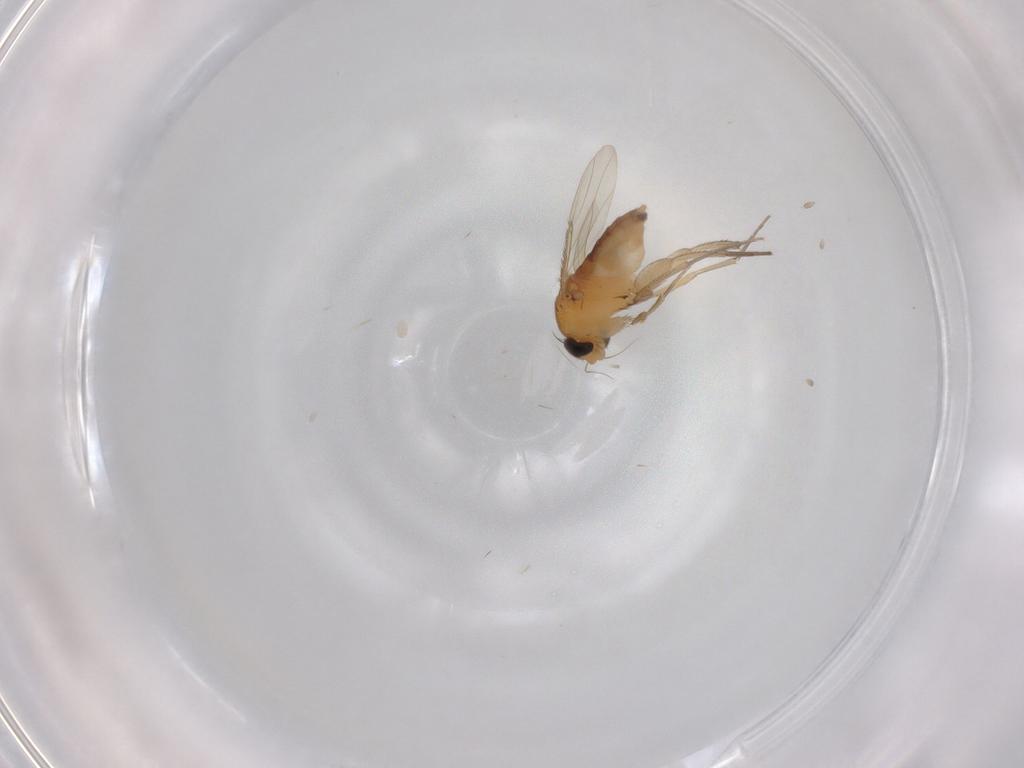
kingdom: Animalia
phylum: Arthropoda
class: Insecta
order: Diptera
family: Phoridae
